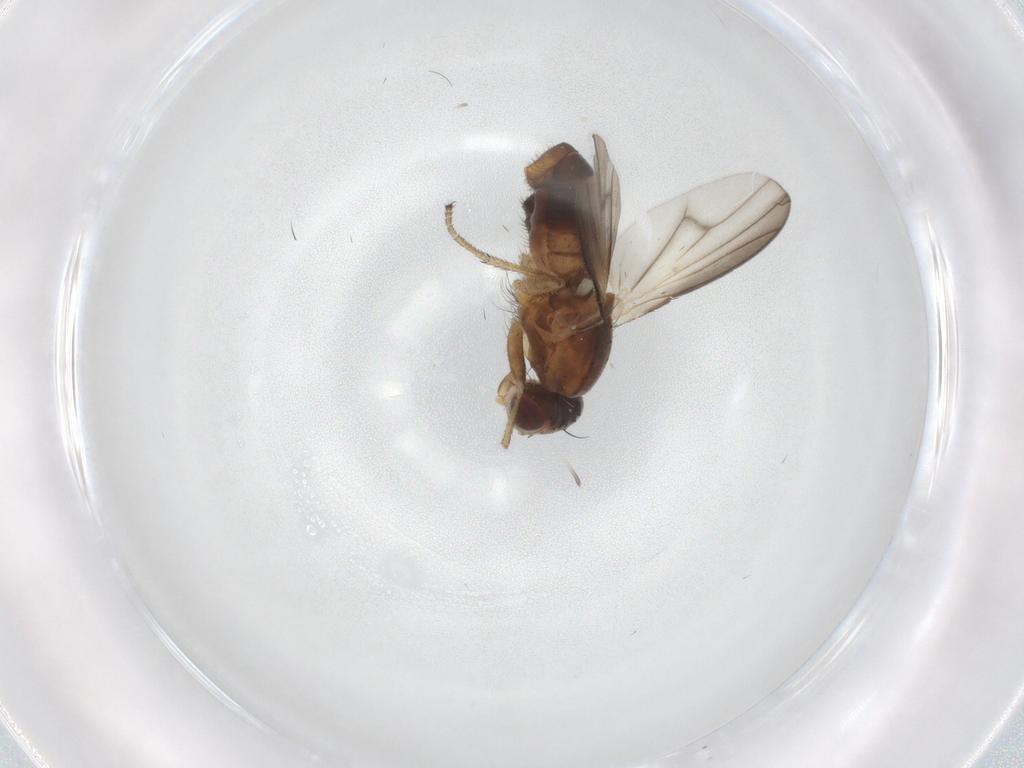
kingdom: Animalia
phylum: Arthropoda
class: Insecta
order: Diptera
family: Heleomyzidae
